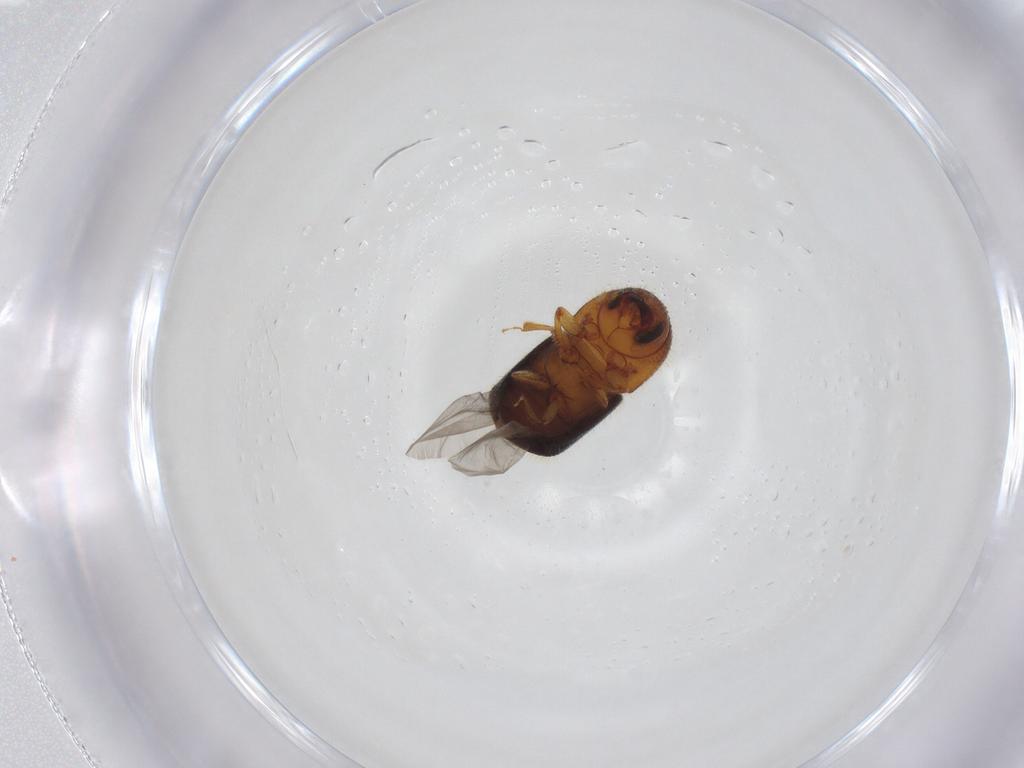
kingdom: Animalia
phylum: Arthropoda
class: Insecta
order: Coleoptera
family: Curculionidae
